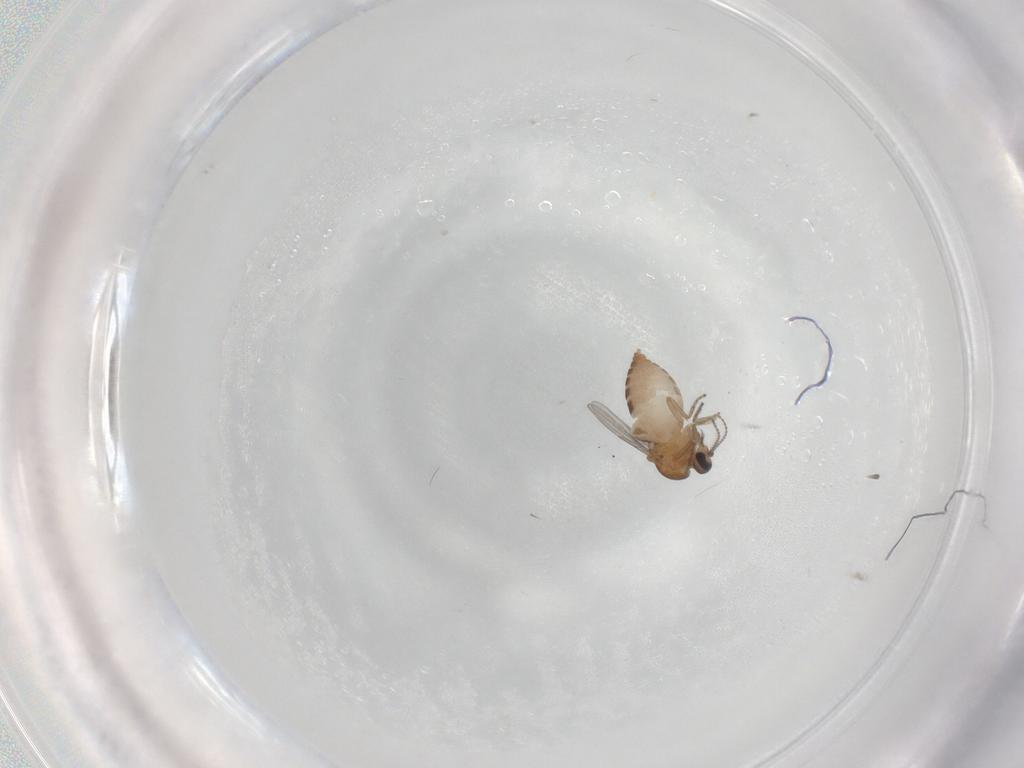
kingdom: Animalia
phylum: Arthropoda
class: Insecta
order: Diptera
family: Ceratopogonidae
